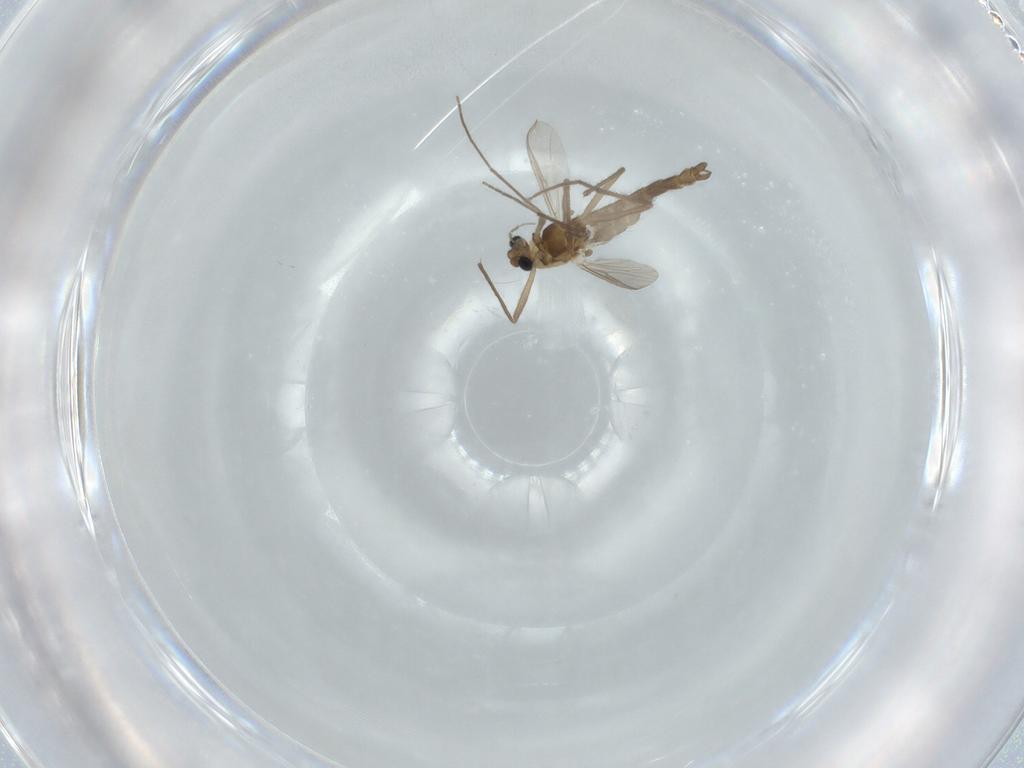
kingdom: Animalia
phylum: Arthropoda
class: Insecta
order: Diptera
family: Chironomidae
